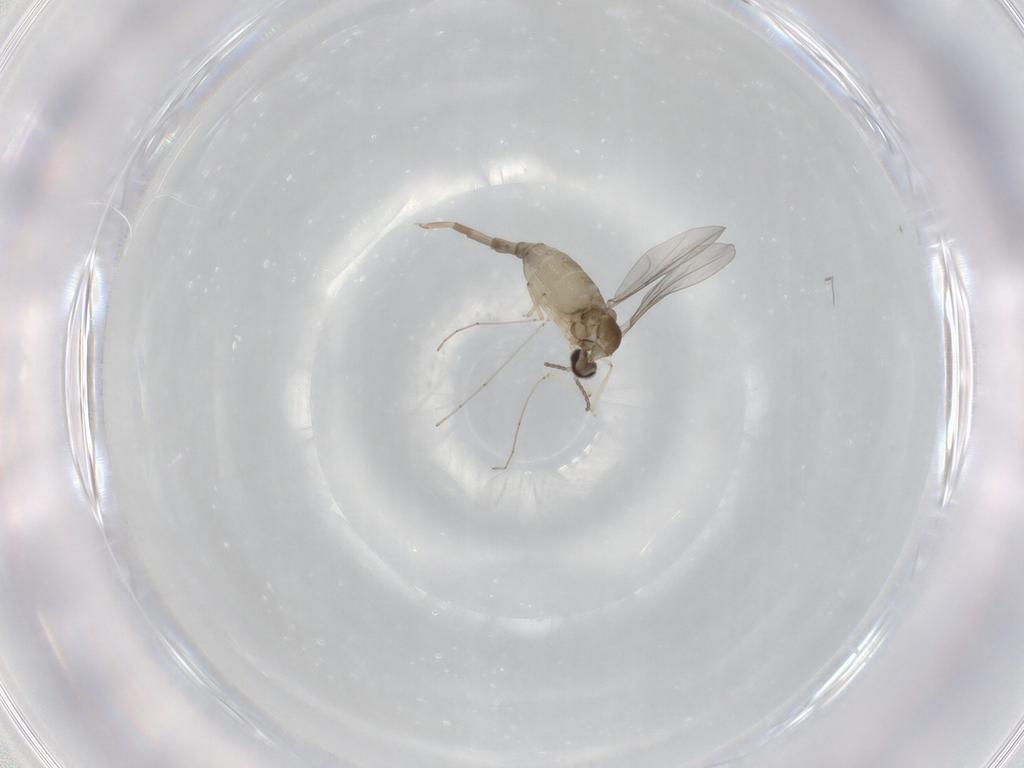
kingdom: Animalia
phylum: Arthropoda
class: Insecta
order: Diptera
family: Cecidomyiidae
